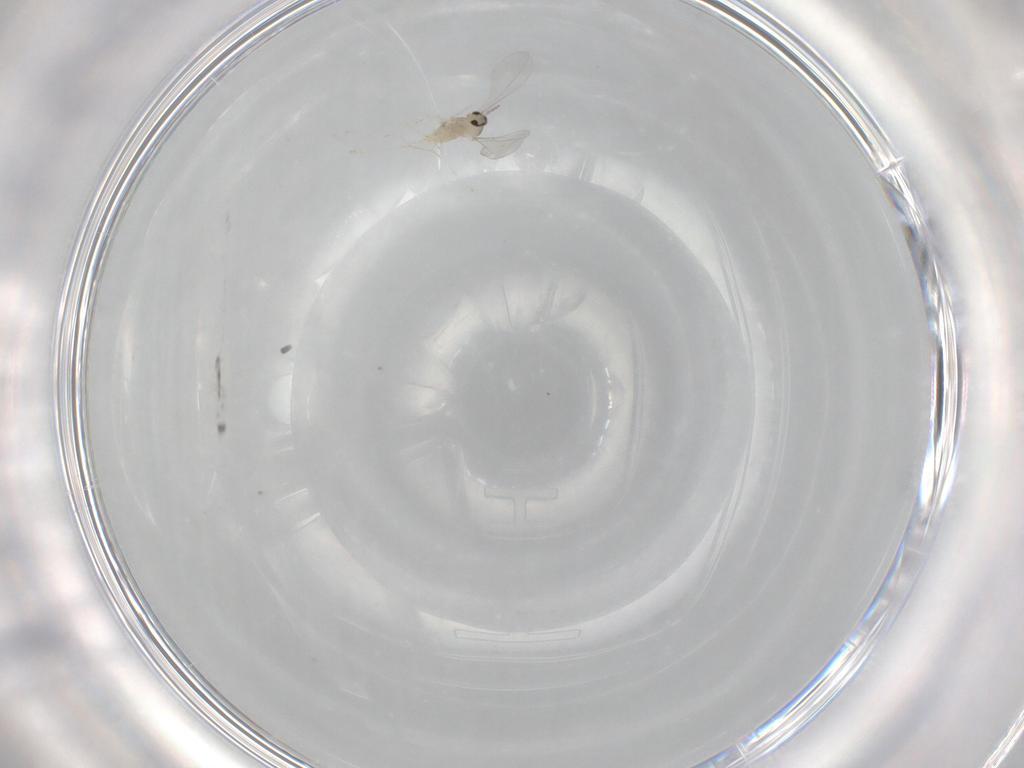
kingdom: Animalia
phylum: Arthropoda
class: Insecta
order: Diptera
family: Cecidomyiidae
